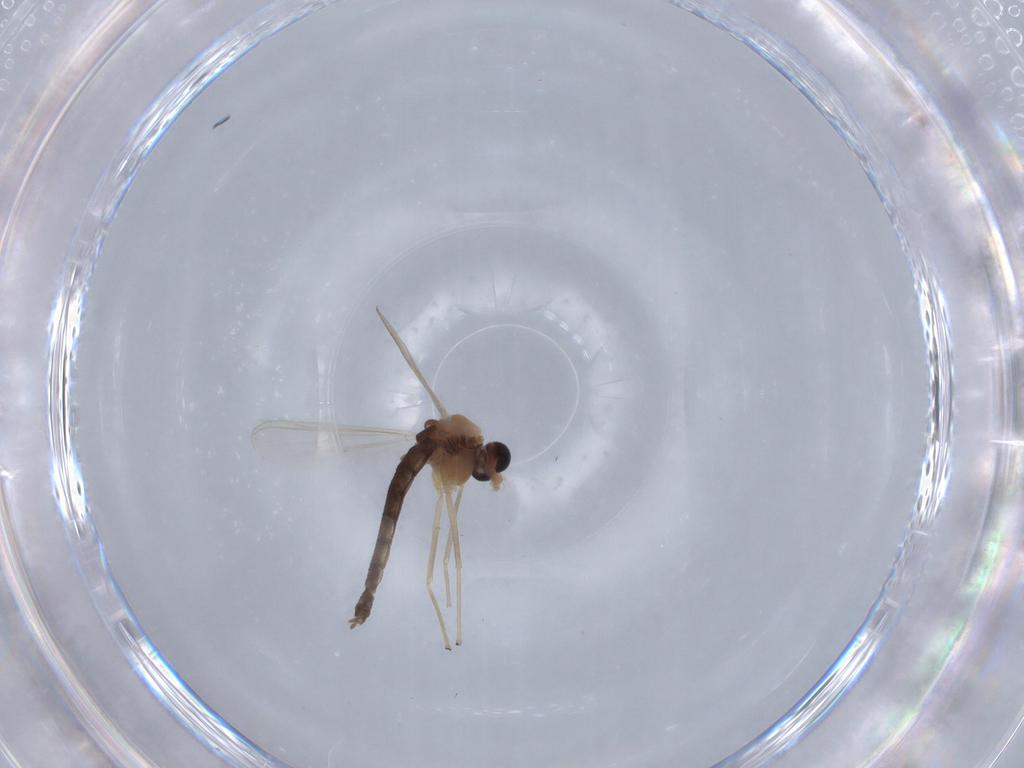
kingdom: Animalia
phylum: Arthropoda
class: Insecta
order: Diptera
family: Chironomidae
